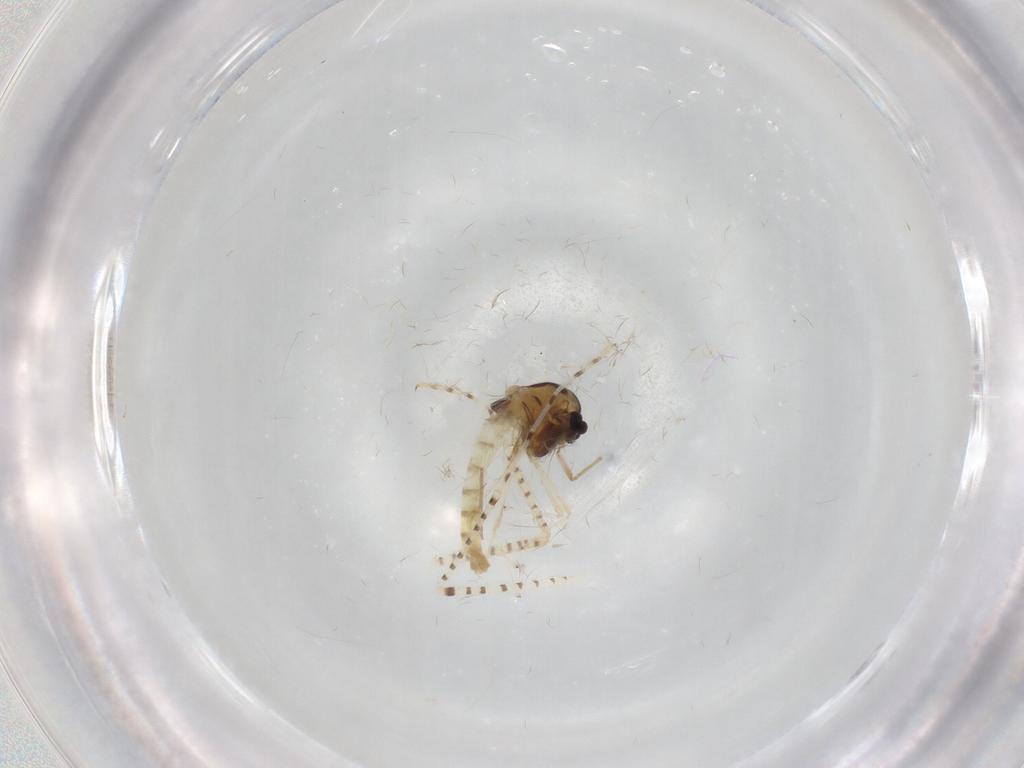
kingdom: Animalia
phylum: Arthropoda
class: Insecta
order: Diptera
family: Chironomidae
